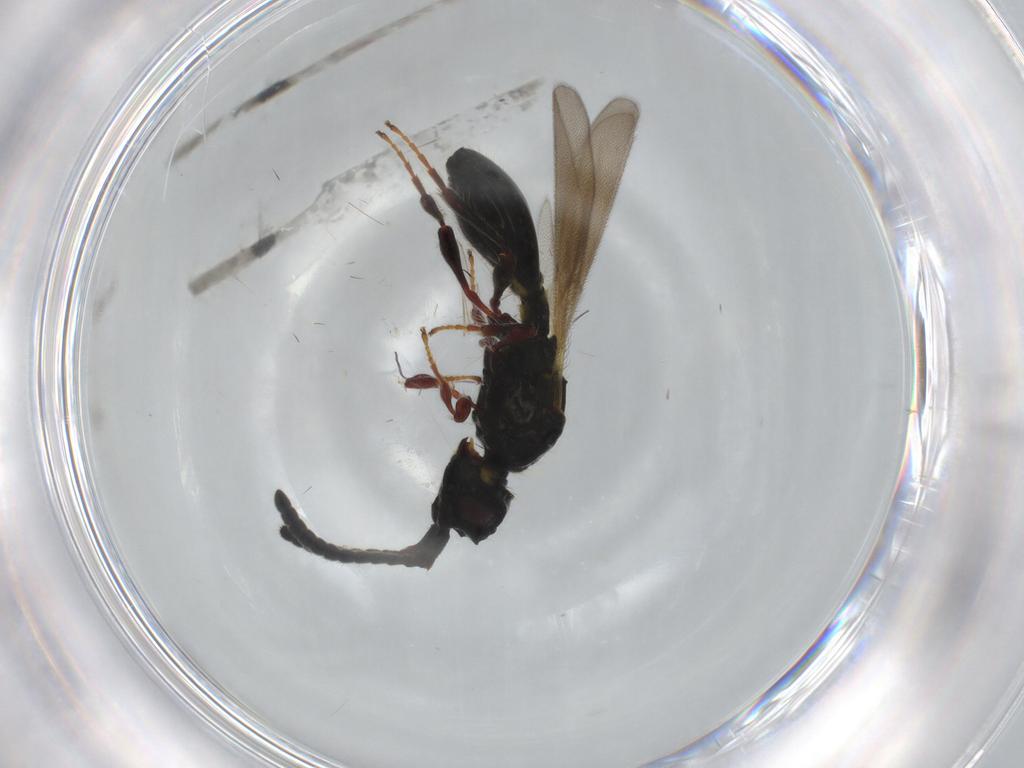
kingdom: Animalia
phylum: Arthropoda
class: Insecta
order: Hymenoptera
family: Diapriidae
